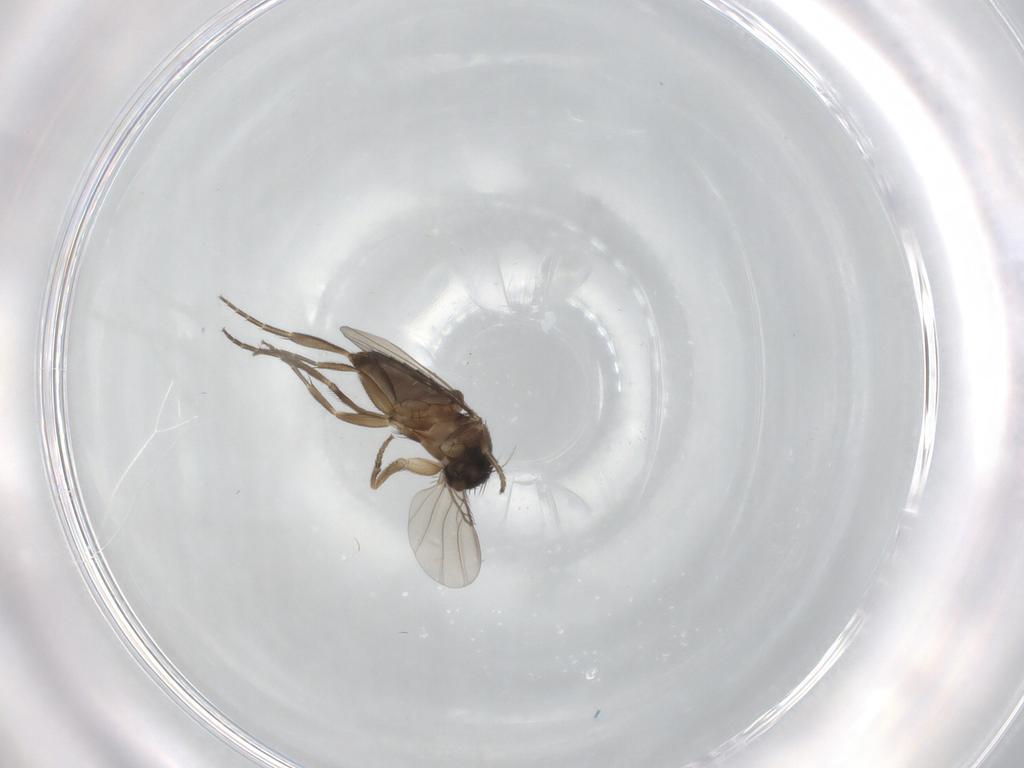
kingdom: Animalia
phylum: Arthropoda
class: Insecta
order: Diptera
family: Phoridae
